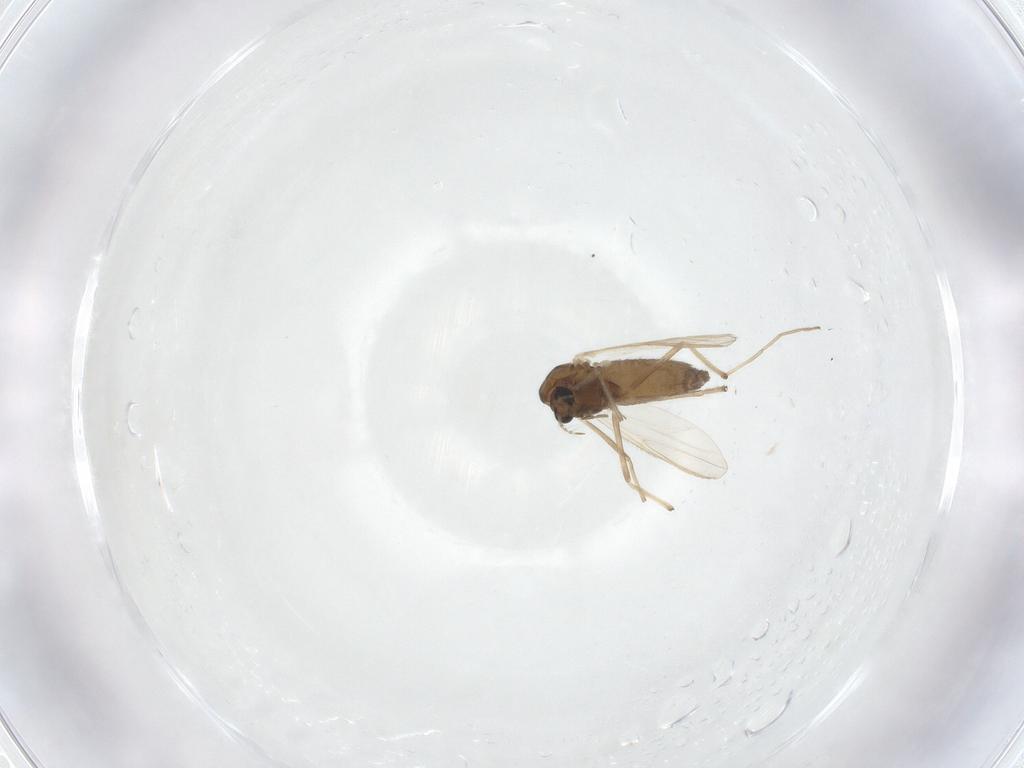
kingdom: Animalia
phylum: Arthropoda
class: Insecta
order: Diptera
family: Chironomidae
